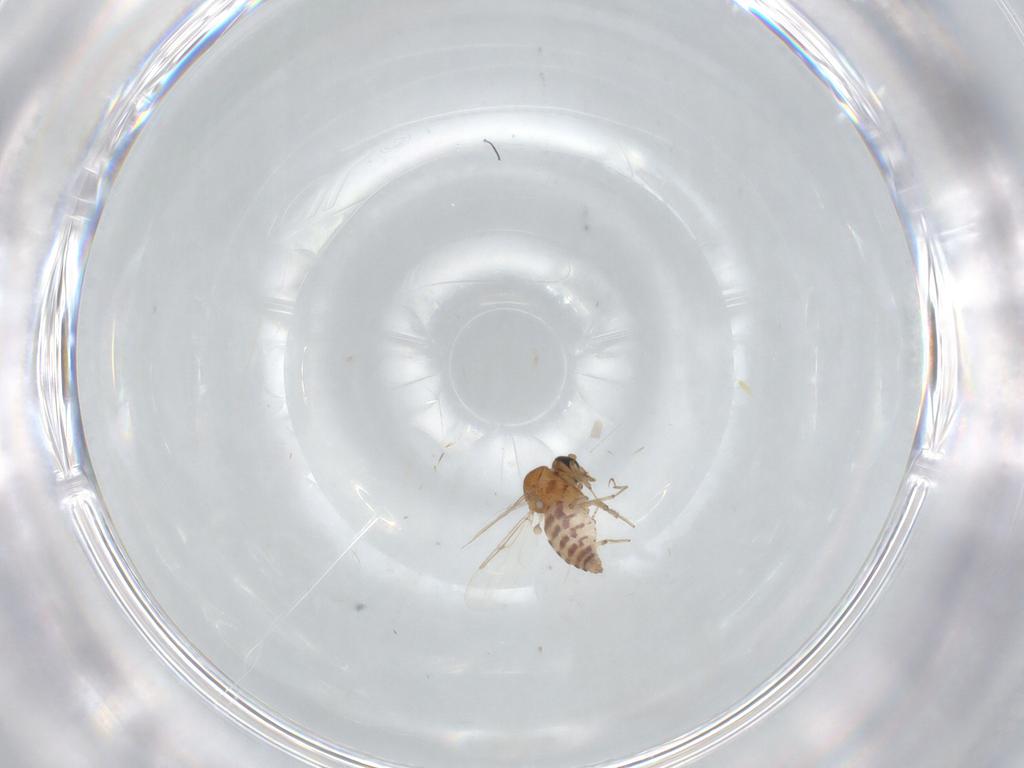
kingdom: Animalia
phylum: Arthropoda
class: Insecta
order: Diptera
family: Ceratopogonidae
